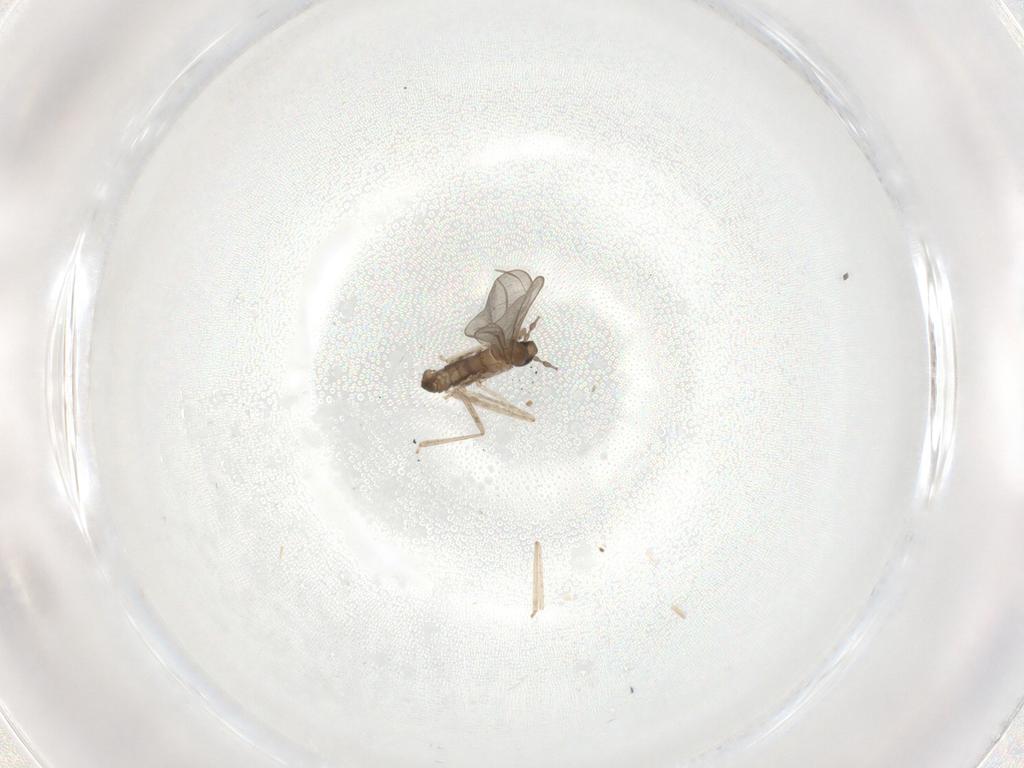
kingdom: Animalia
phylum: Arthropoda
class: Insecta
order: Diptera
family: Cecidomyiidae
